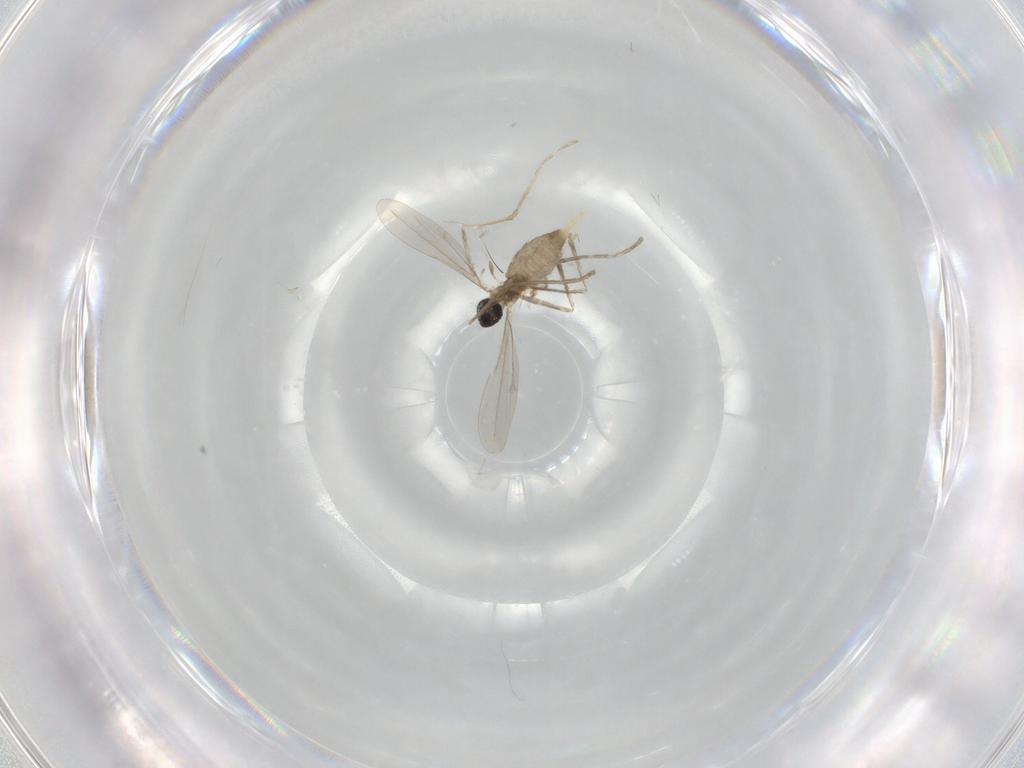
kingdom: Animalia
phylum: Arthropoda
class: Insecta
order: Diptera
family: Cecidomyiidae
